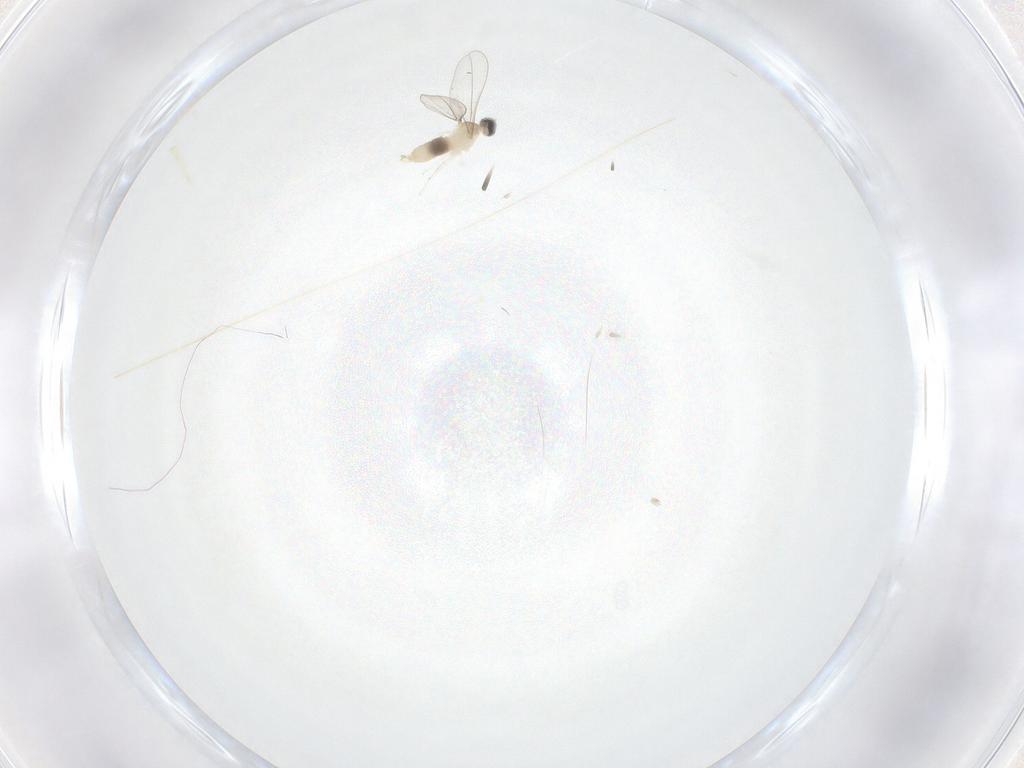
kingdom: Animalia
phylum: Arthropoda
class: Insecta
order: Diptera
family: Cecidomyiidae
